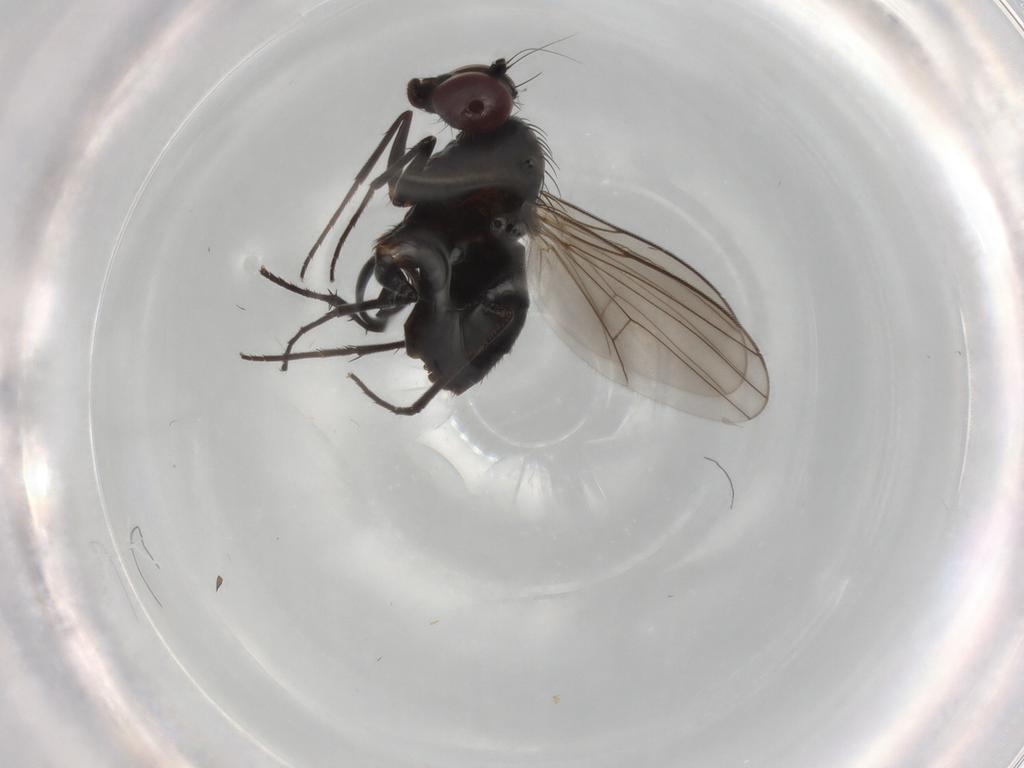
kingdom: Animalia
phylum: Arthropoda
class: Insecta
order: Diptera
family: Dolichopodidae
